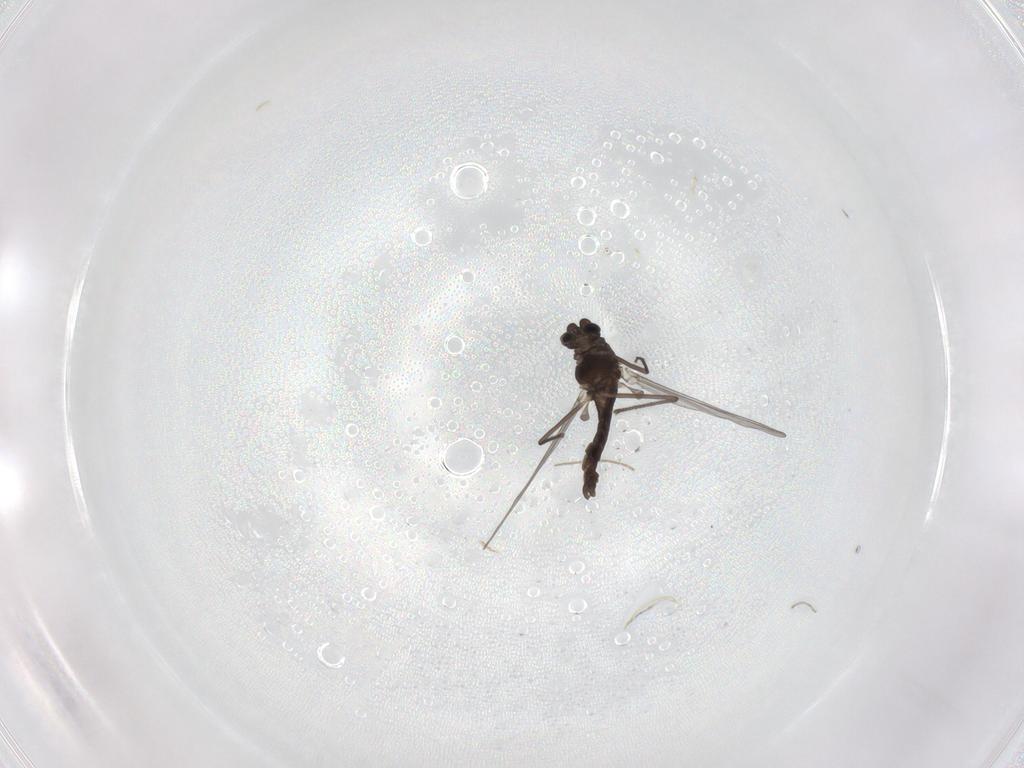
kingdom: Animalia
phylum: Arthropoda
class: Insecta
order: Diptera
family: Chironomidae
